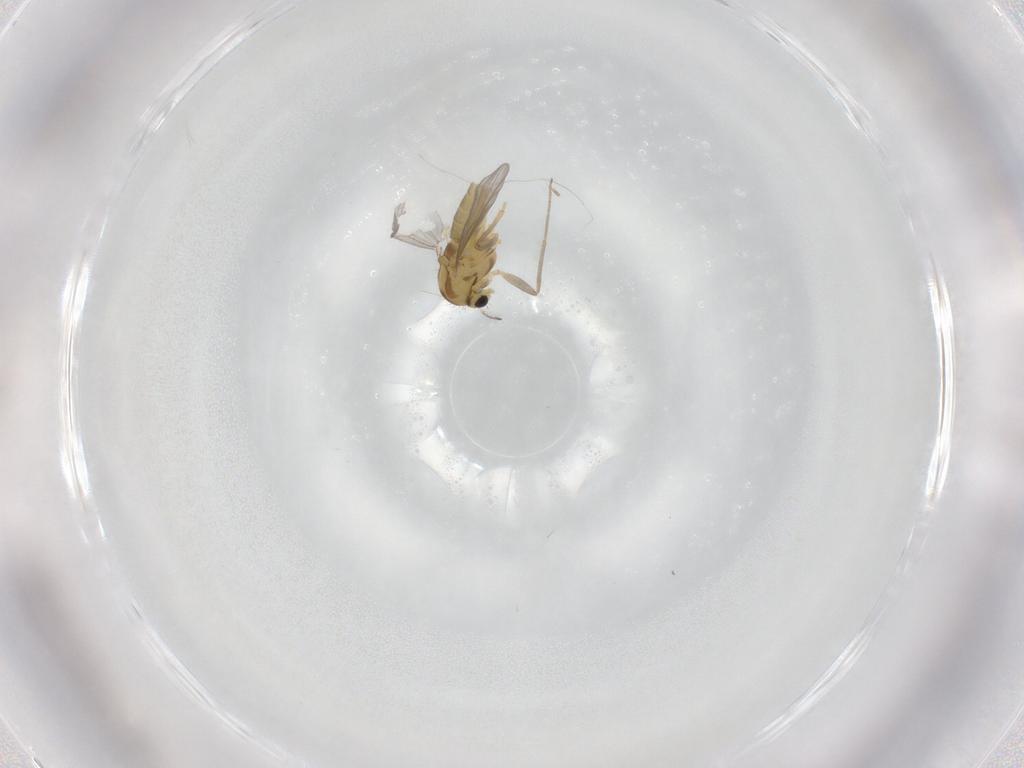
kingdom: Animalia
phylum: Arthropoda
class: Insecta
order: Diptera
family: Chironomidae
